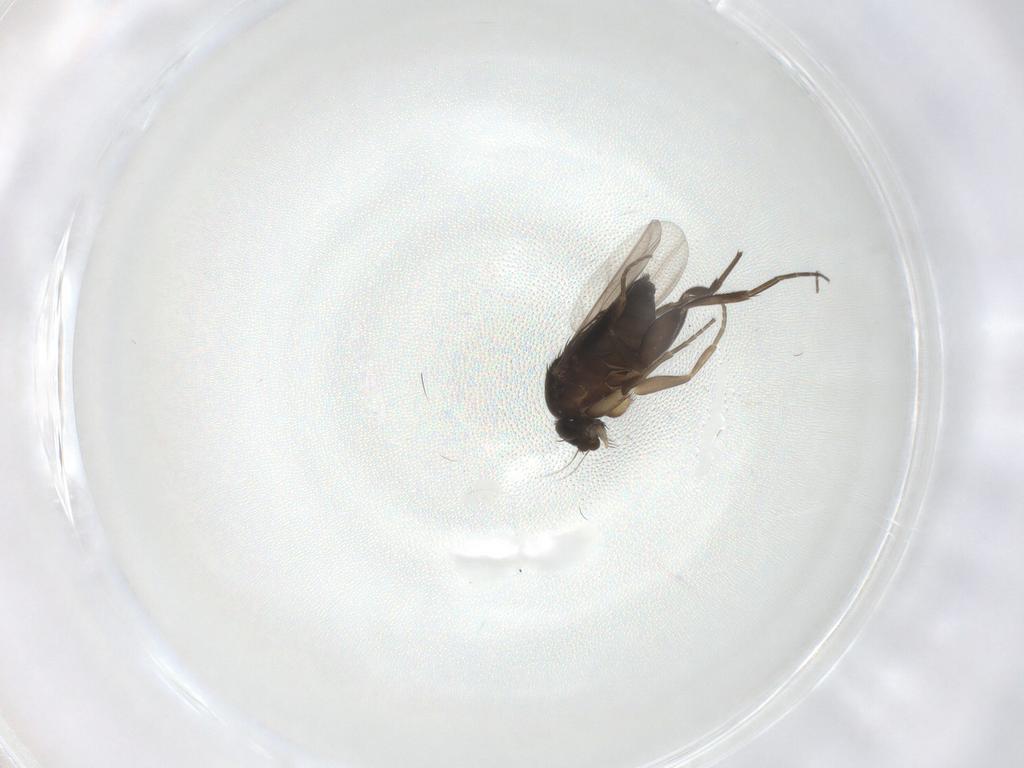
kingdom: Animalia
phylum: Arthropoda
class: Insecta
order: Diptera
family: Phoridae
